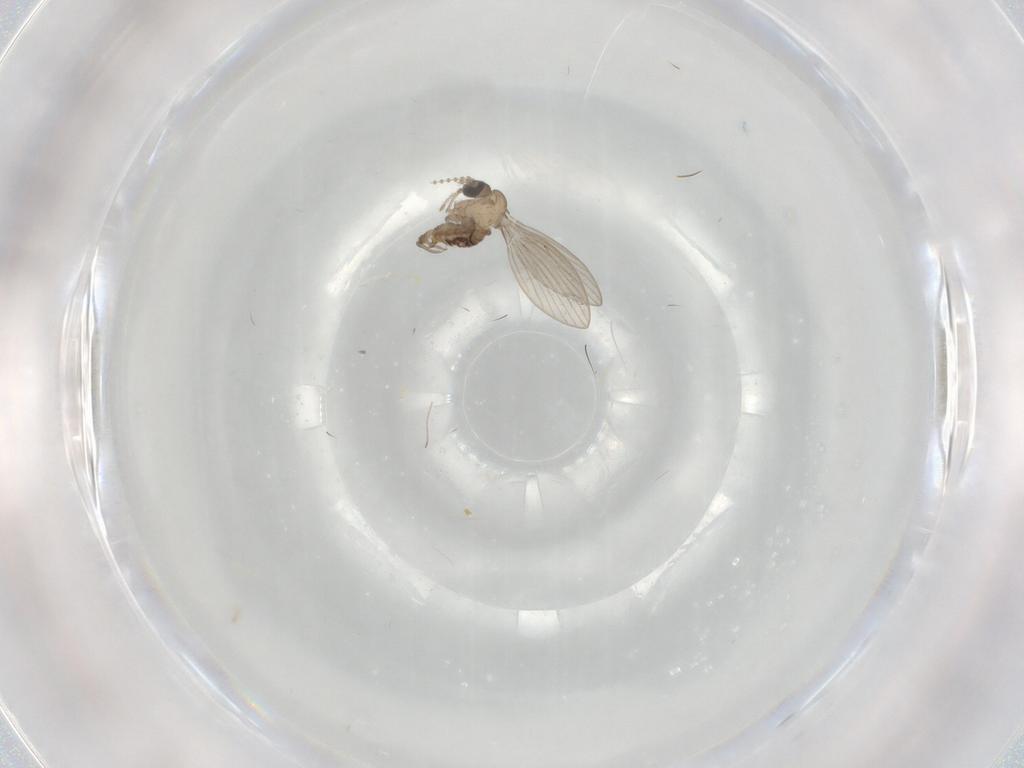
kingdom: Animalia
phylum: Arthropoda
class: Insecta
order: Diptera
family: Psychodidae
